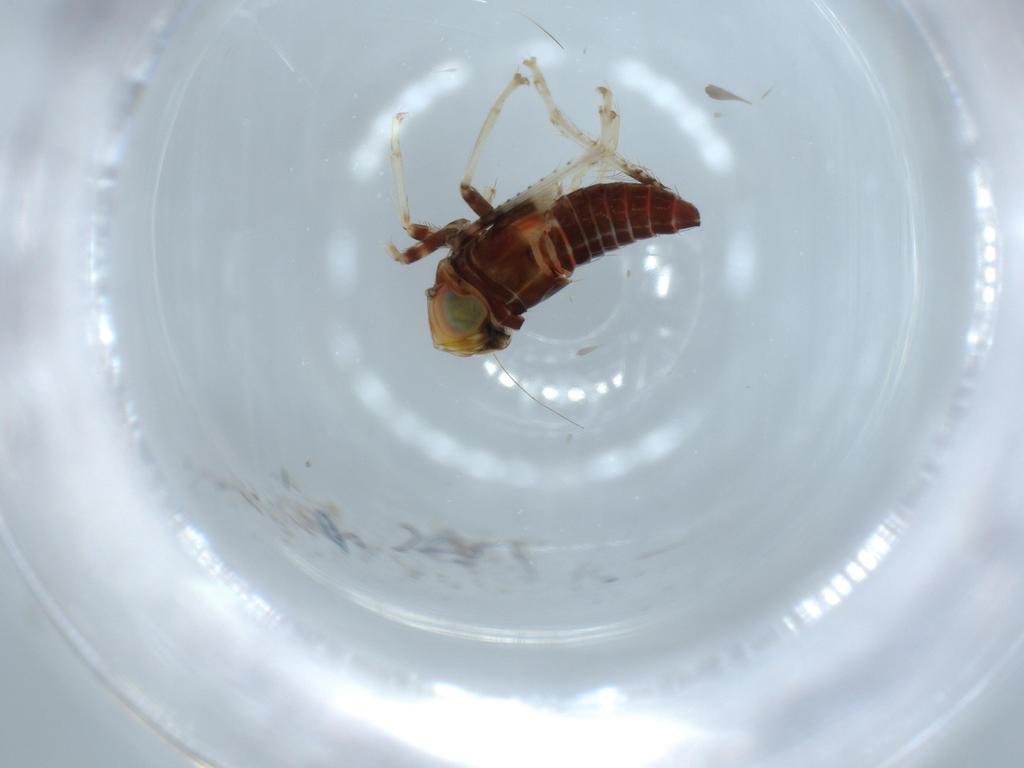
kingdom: Animalia
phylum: Arthropoda
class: Insecta
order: Hemiptera
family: Cicadellidae
